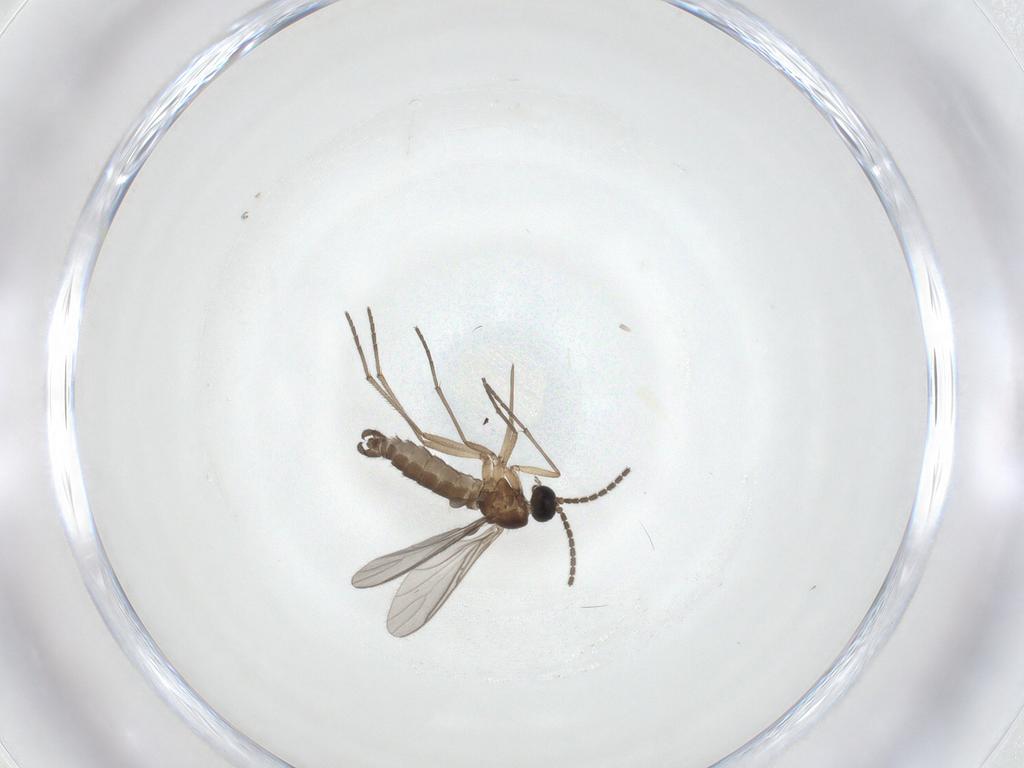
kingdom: Animalia
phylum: Arthropoda
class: Insecta
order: Diptera
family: Sciaridae
